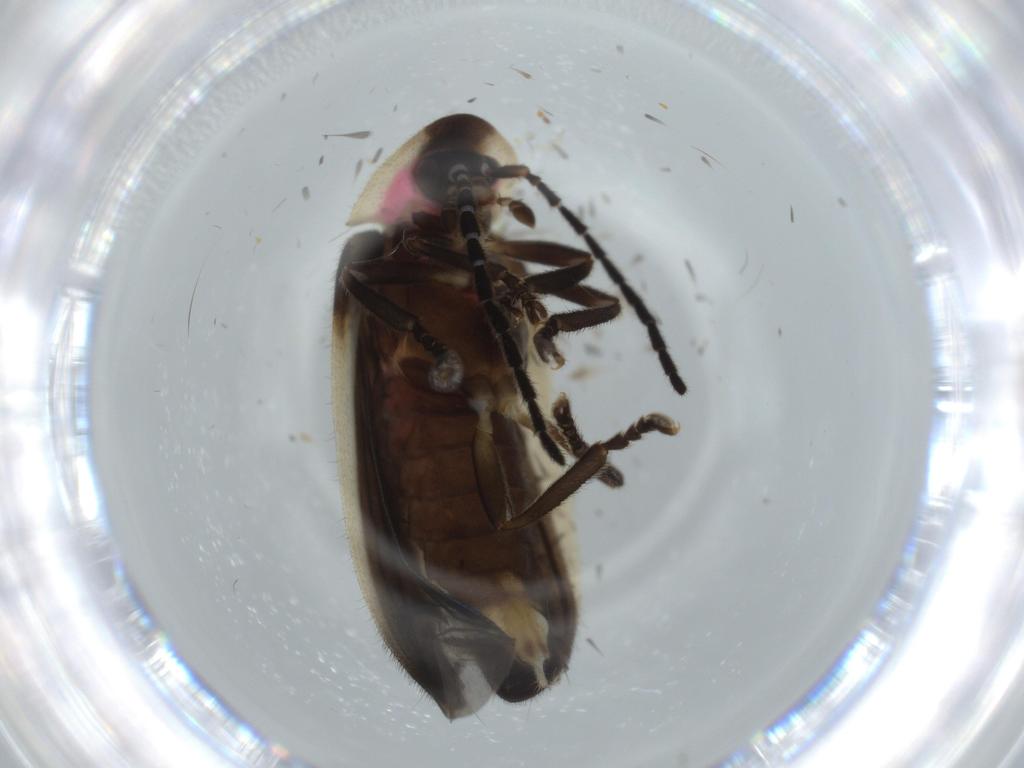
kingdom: Animalia
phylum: Arthropoda
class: Insecta
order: Coleoptera
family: Lampyridae
